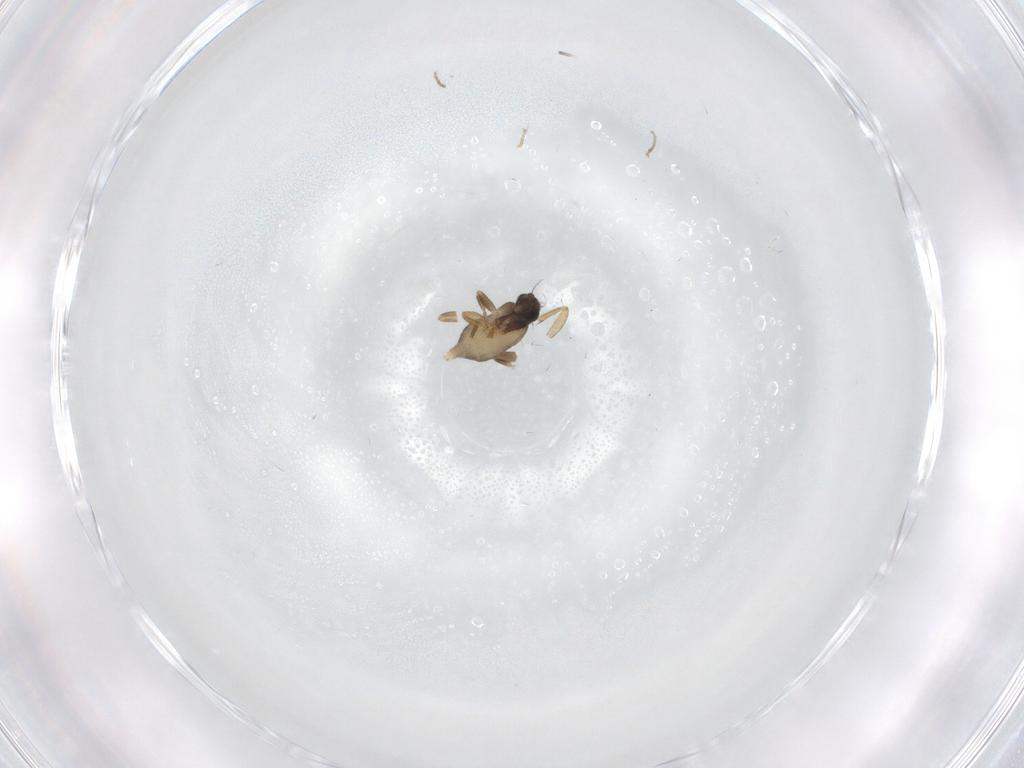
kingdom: Animalia
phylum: Arthropoda
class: Insecta
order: Diptera
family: Phoridae
